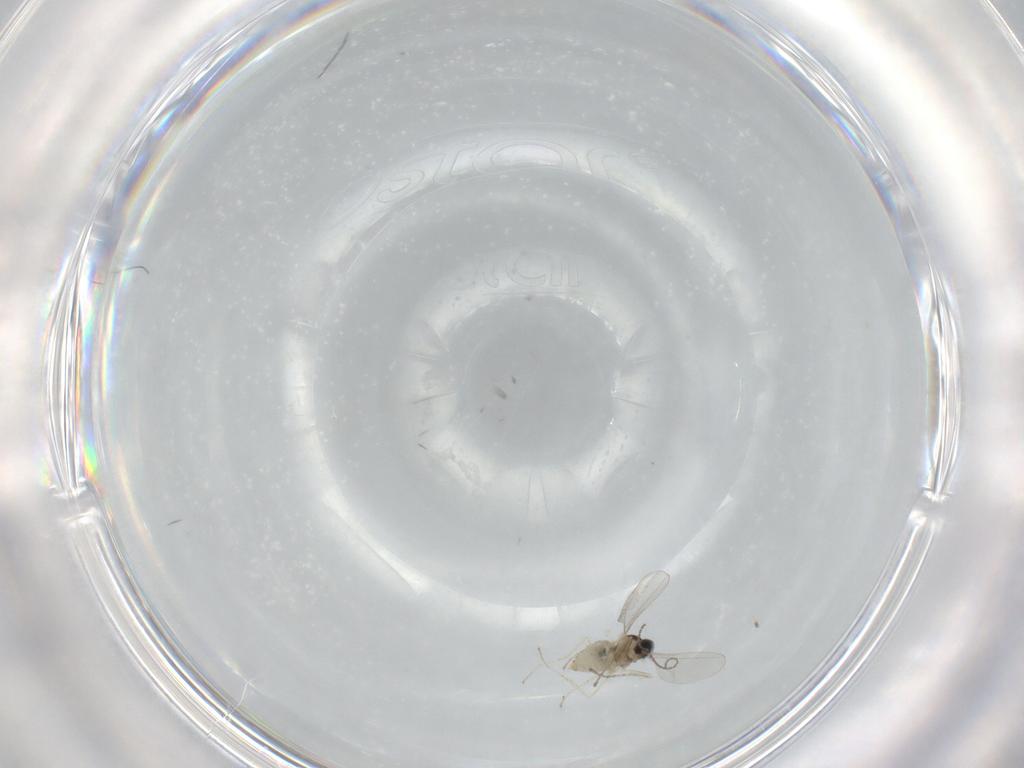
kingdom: Animalia
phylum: Arthropoda
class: Insecta
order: Diptera
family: Cecidomyiidae
